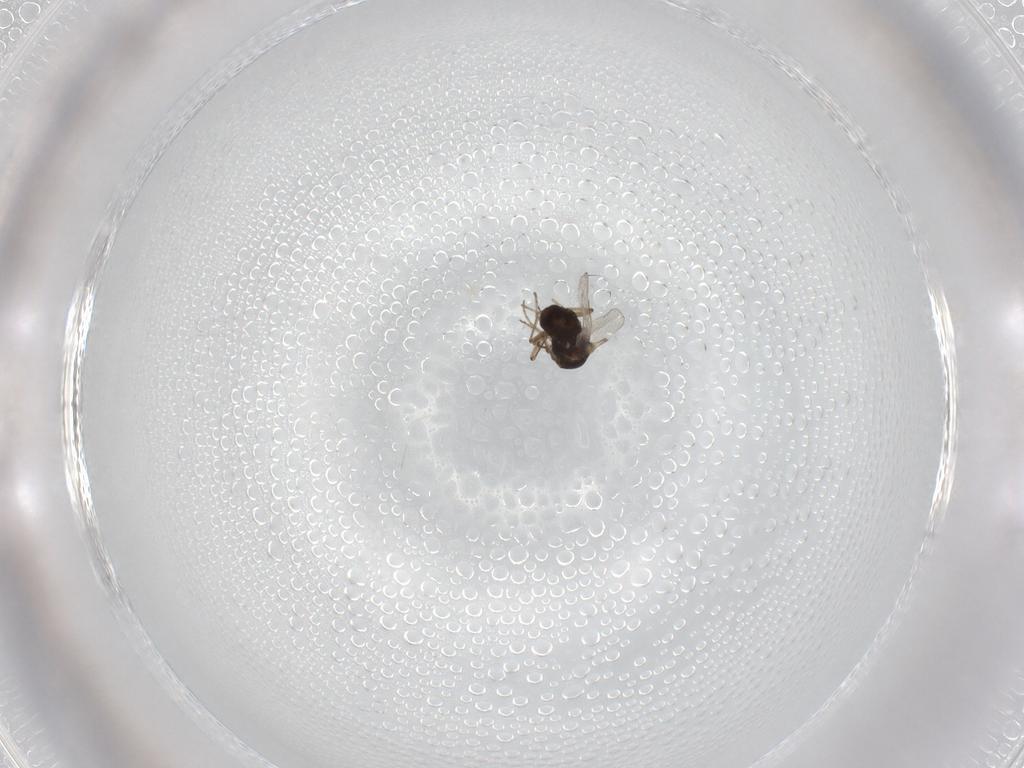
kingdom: Animalia
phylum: Arthropoda
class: Insecta
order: Diptera
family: Ceratopogonidae
